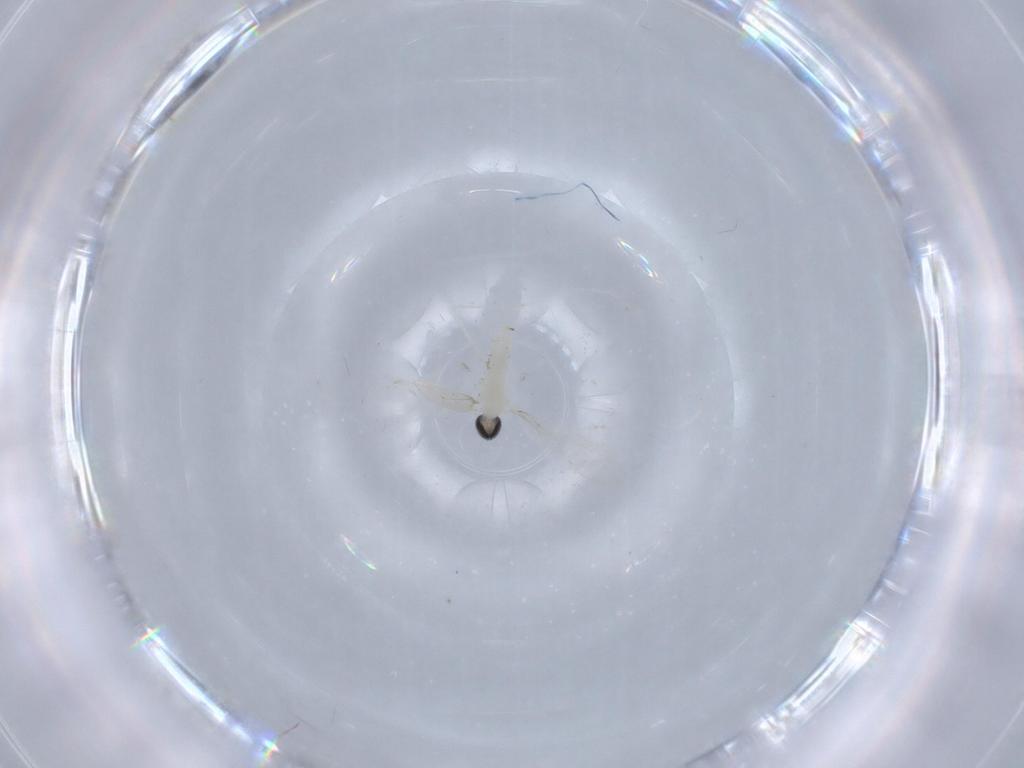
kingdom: Animalia
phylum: Arthropoda
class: Insecta
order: Diptera
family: Cecidomyiidae
